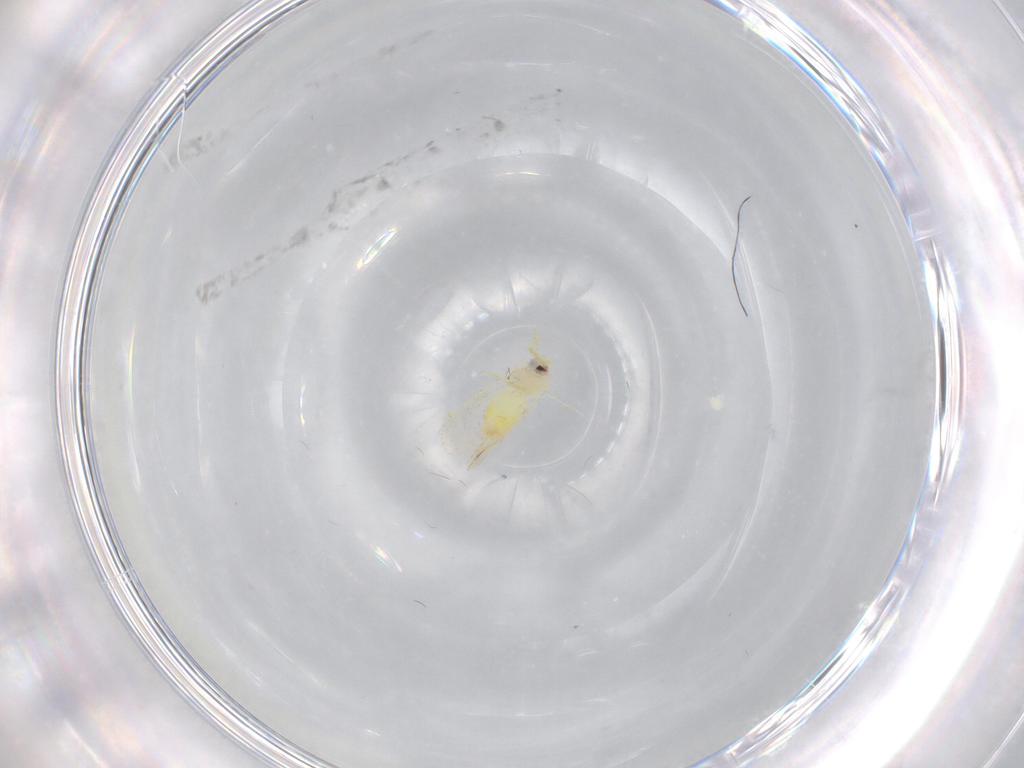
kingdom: Animalia
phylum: Arthropoda
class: Insecta
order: Hemiptera
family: Aleyrodidae
